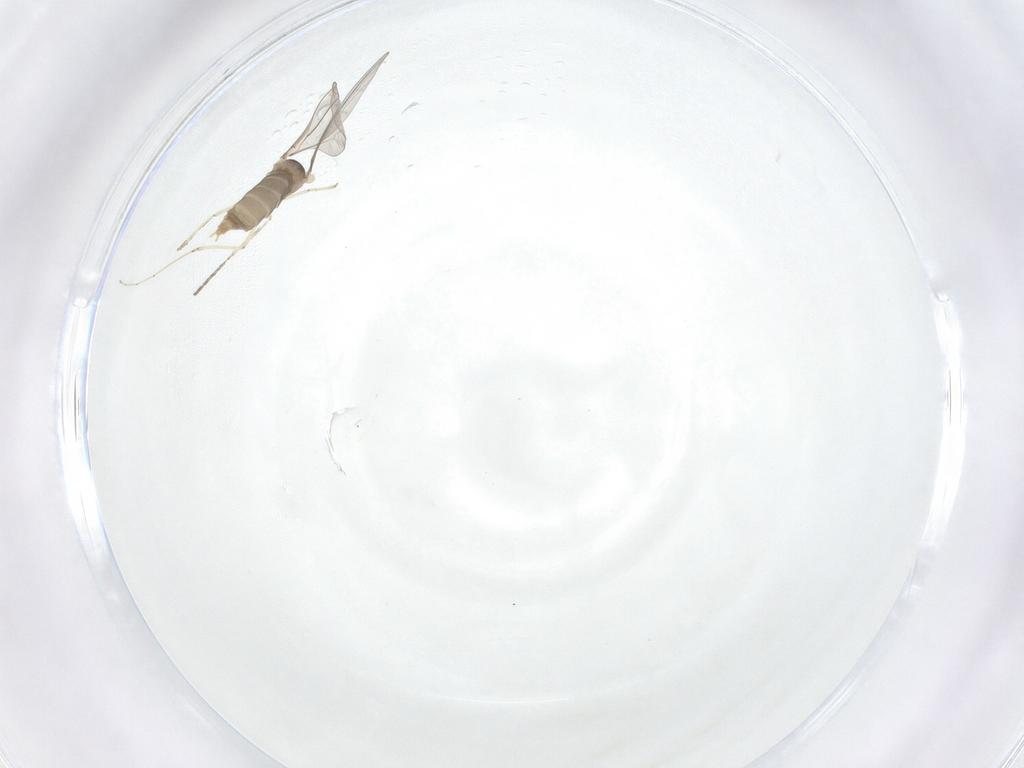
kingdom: Animalia
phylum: Arthropoda
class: Insecta
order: Diptera
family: Cecidomyiidae
